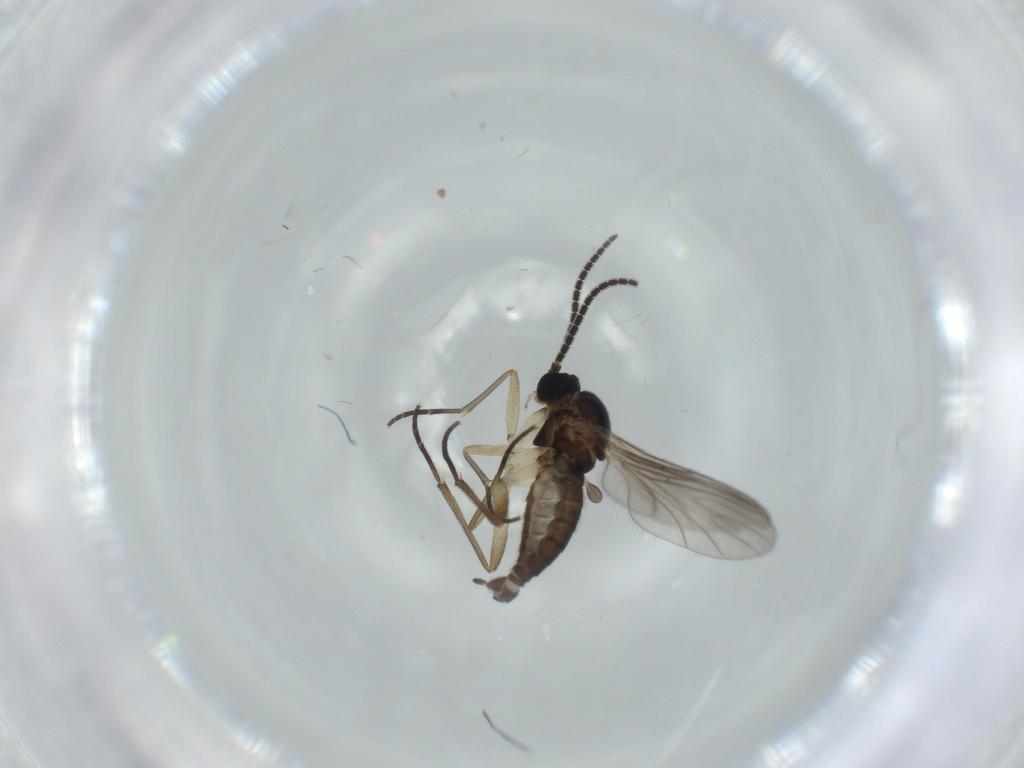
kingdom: Animalia
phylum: Arthropoda
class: Insecta
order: Diptera
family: Sciaridae
